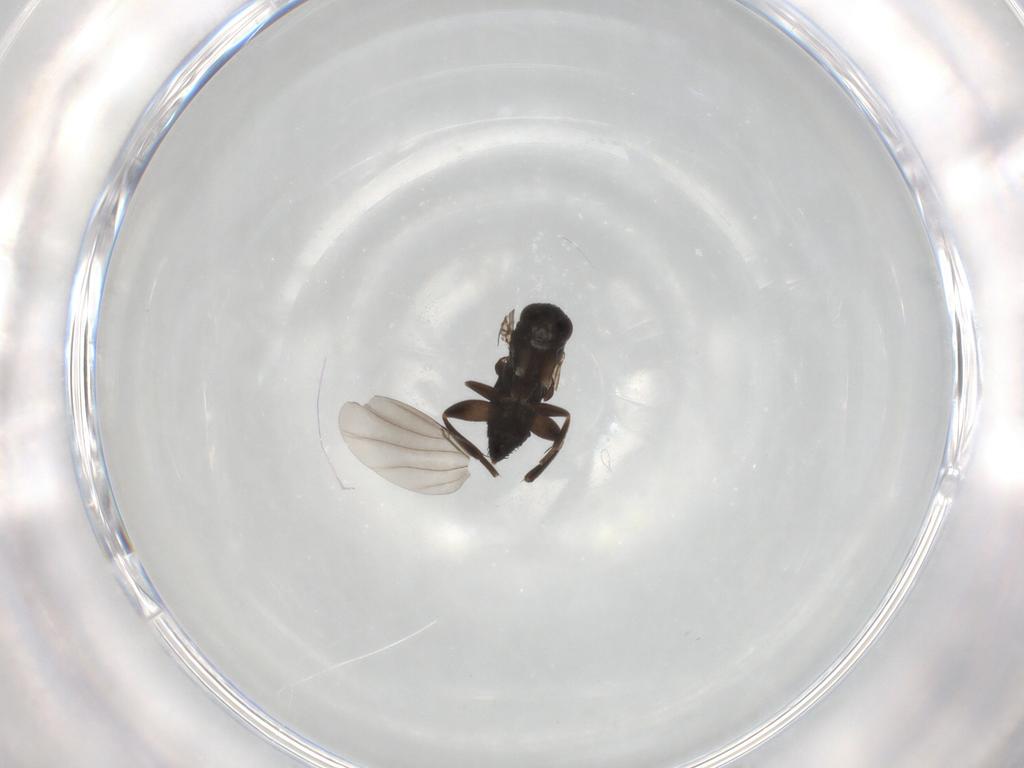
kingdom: Animalia
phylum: Arthropoda
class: Insecta
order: Diptera
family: Phoridae
